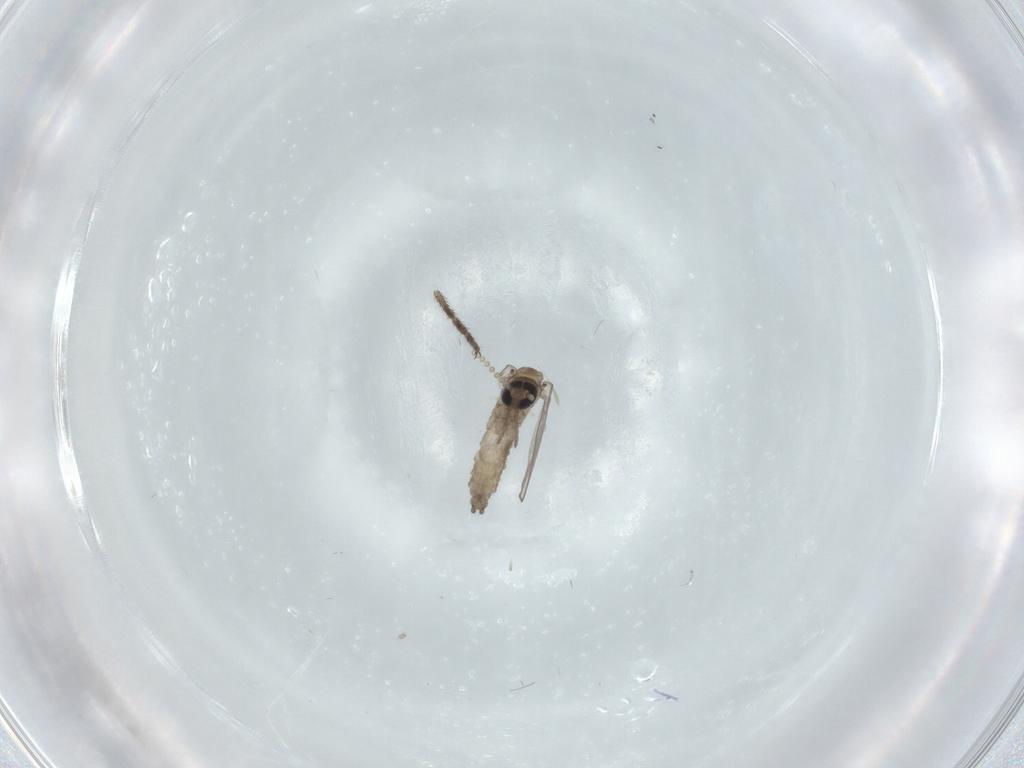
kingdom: Animalia
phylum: Arthropoda
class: Insecta
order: Diptera
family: Psychodidae
